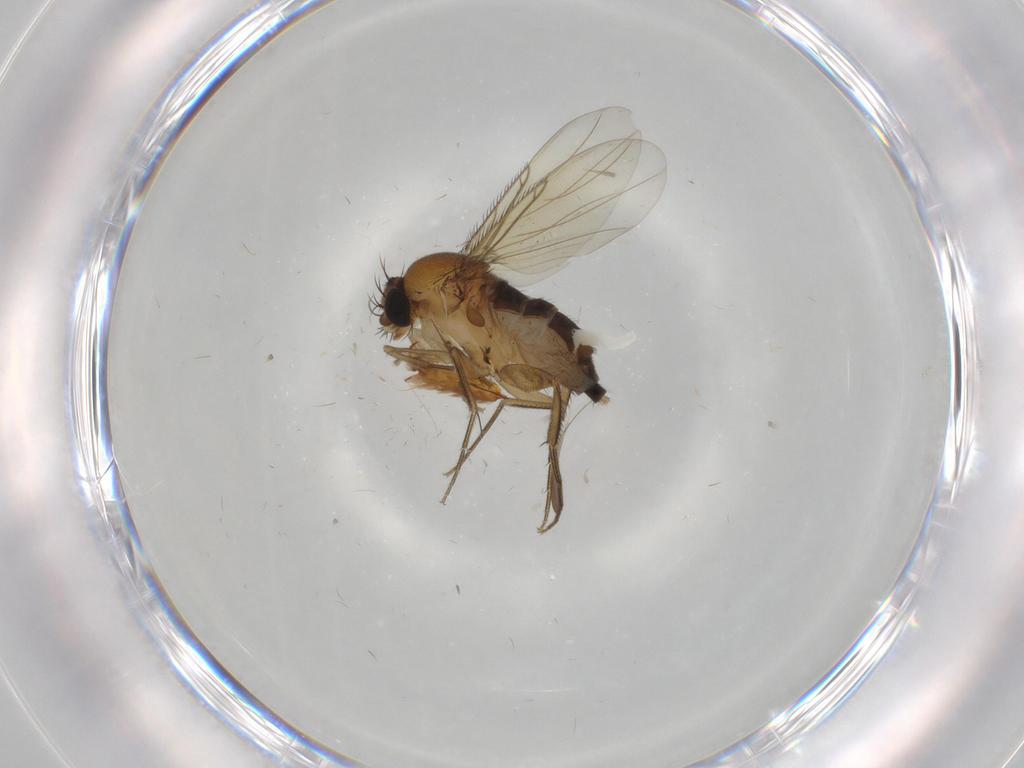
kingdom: Animalia
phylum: Arthropoda
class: Insecta
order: Diptera
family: Phoridae
